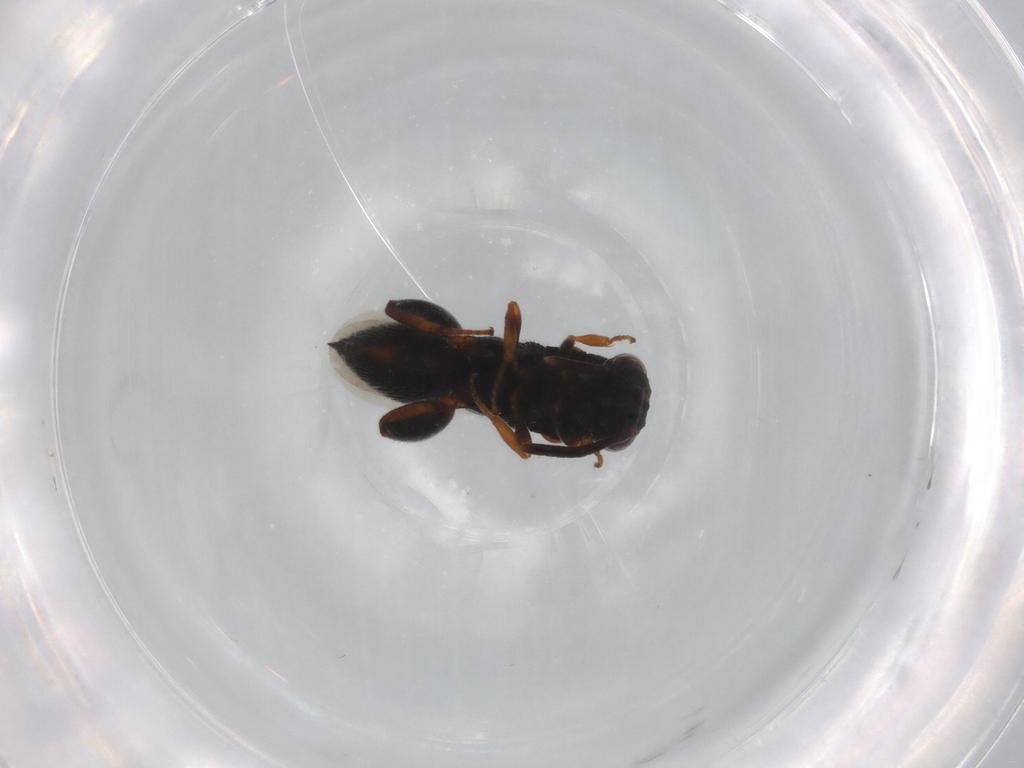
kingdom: Animalia
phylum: Arthropoda
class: Insecta
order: Hymenoptera
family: Chalcididae
